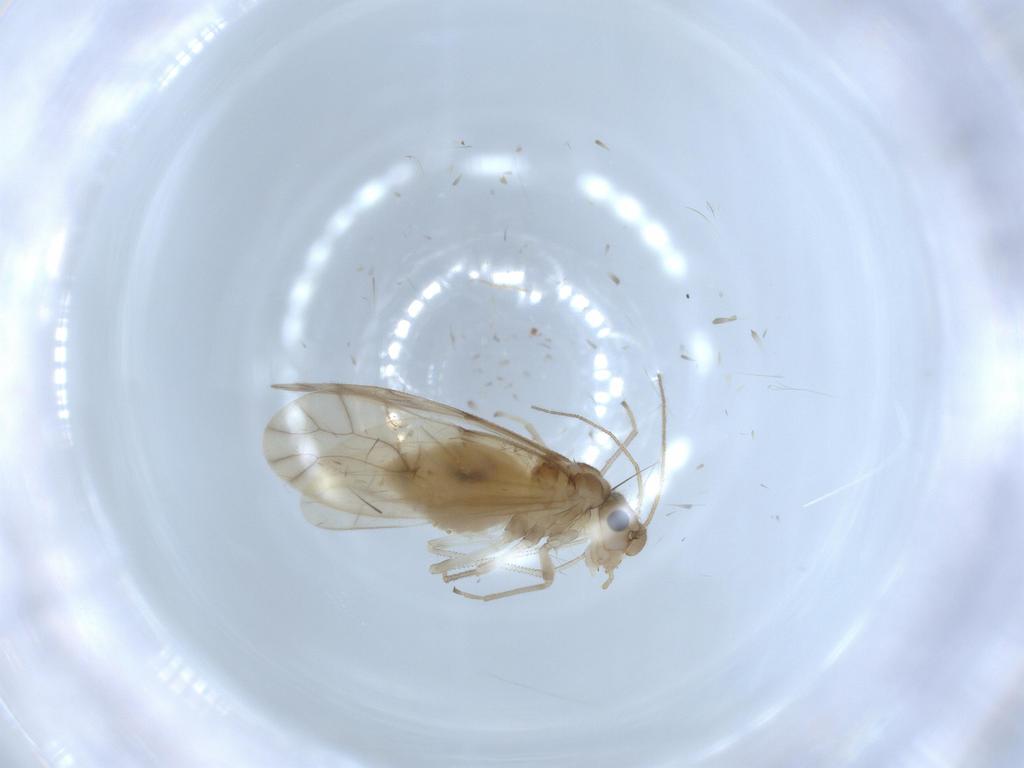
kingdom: Animalia
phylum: Arthropoda
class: Insecta
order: Psocodea
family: Caeciliusidae
